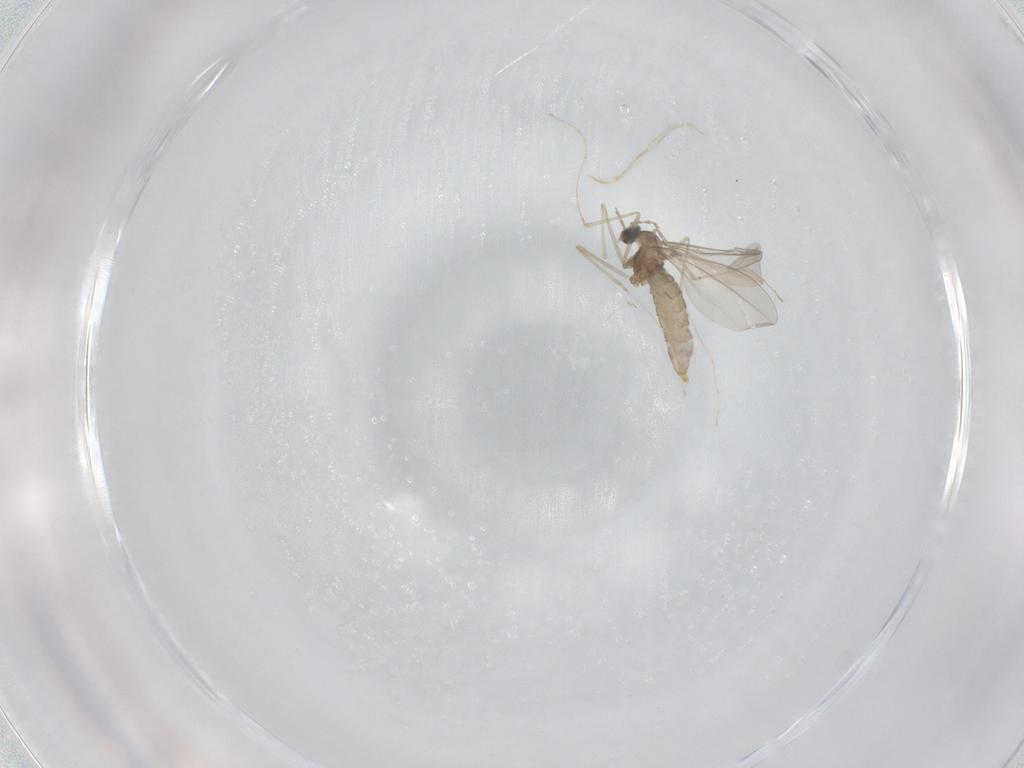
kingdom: Animalia
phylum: Arthropoda
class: Insecta
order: Diptera
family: Cecidomyiidae
